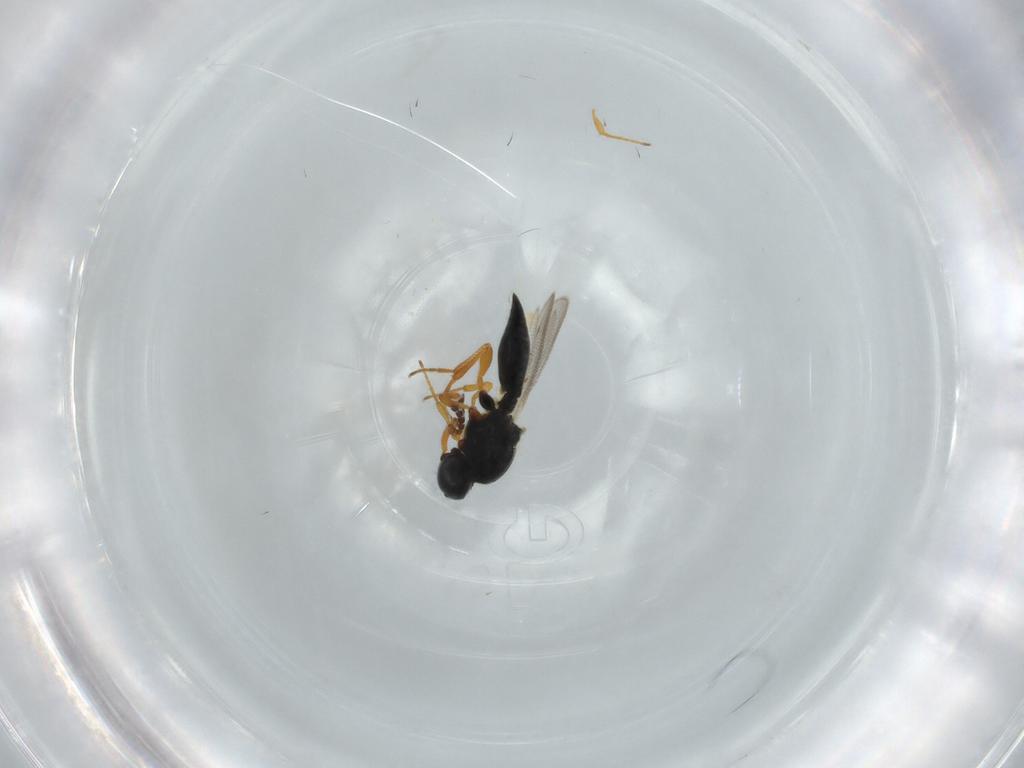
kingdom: Animalia
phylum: Arthropoda
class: Insecta
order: Hymenoptera
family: Platygastridae
